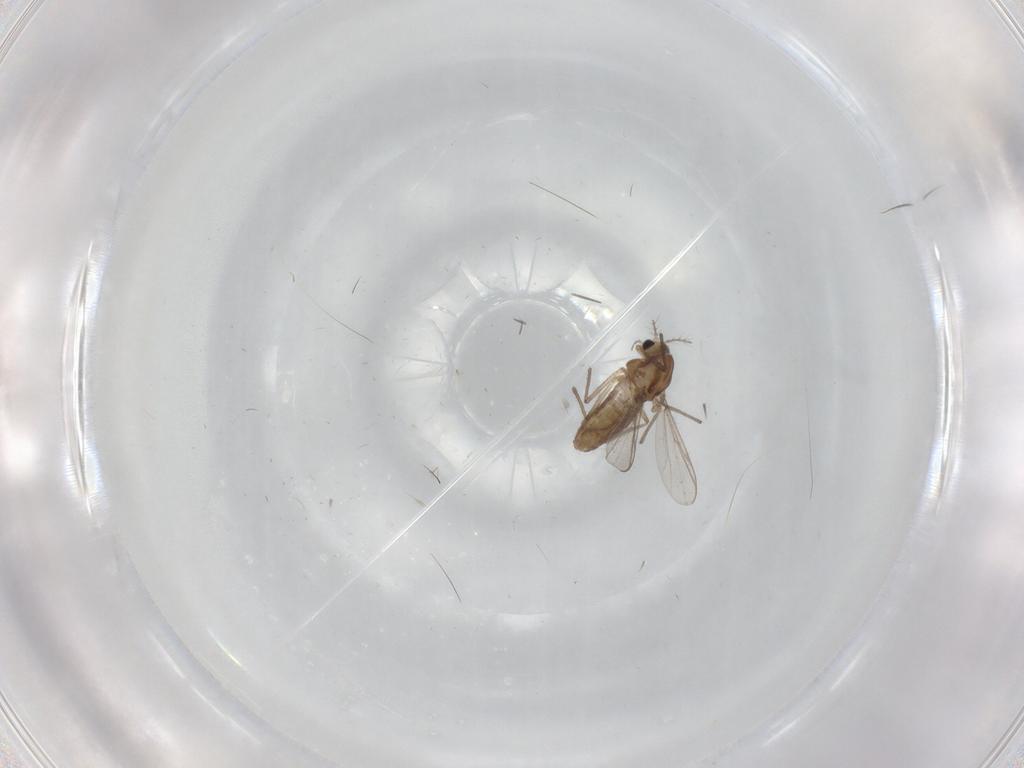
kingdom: Animalia
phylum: Arthropoda
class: Insecta
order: Diptera
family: Chironomidae
